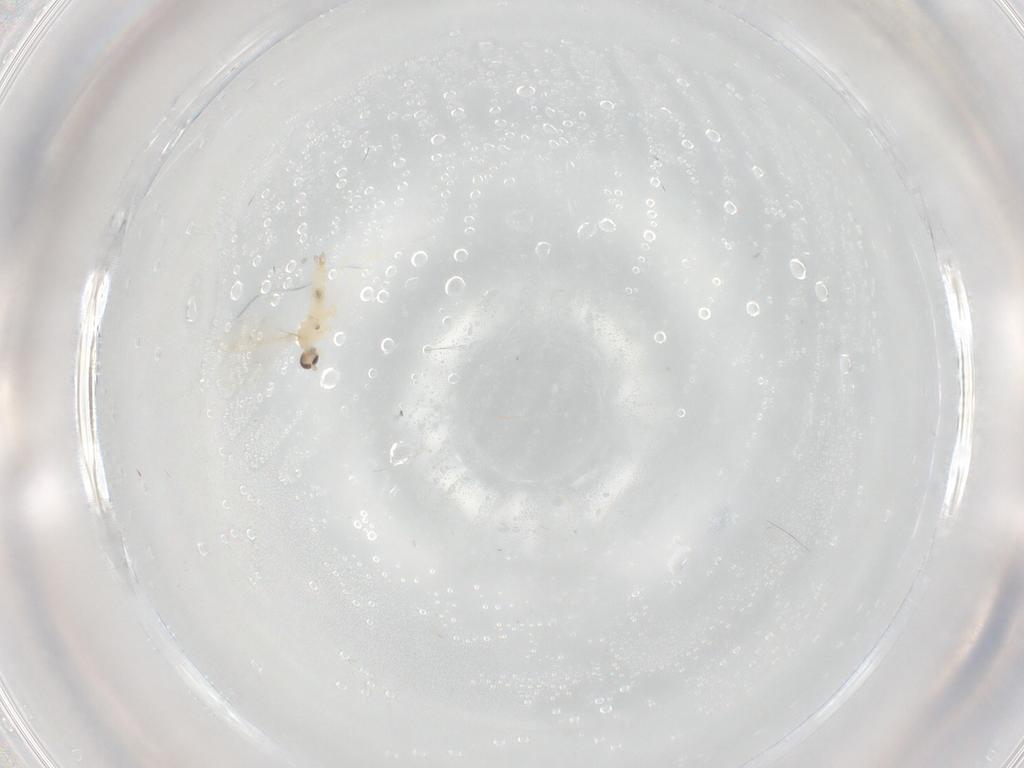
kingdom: Animalia
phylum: Arthropoda
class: Insecta
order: Diptera
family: Cecidomyiidae
